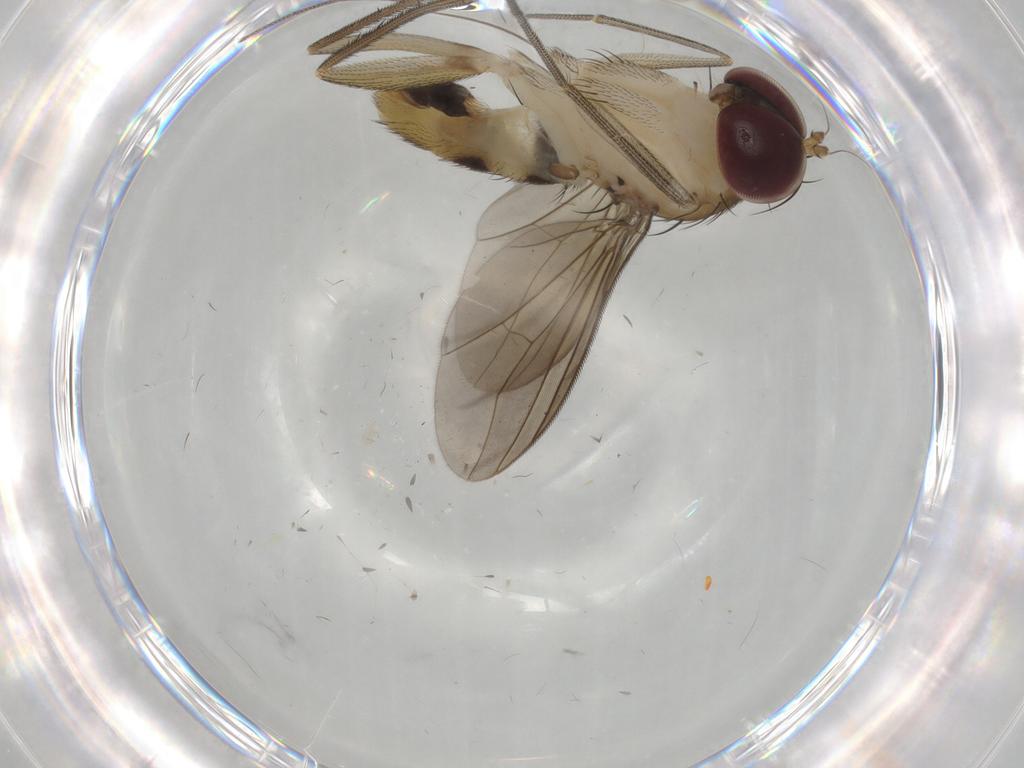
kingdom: Animalia
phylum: Arthropoda
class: Insecta
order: Diptera
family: Dolichopodidae
